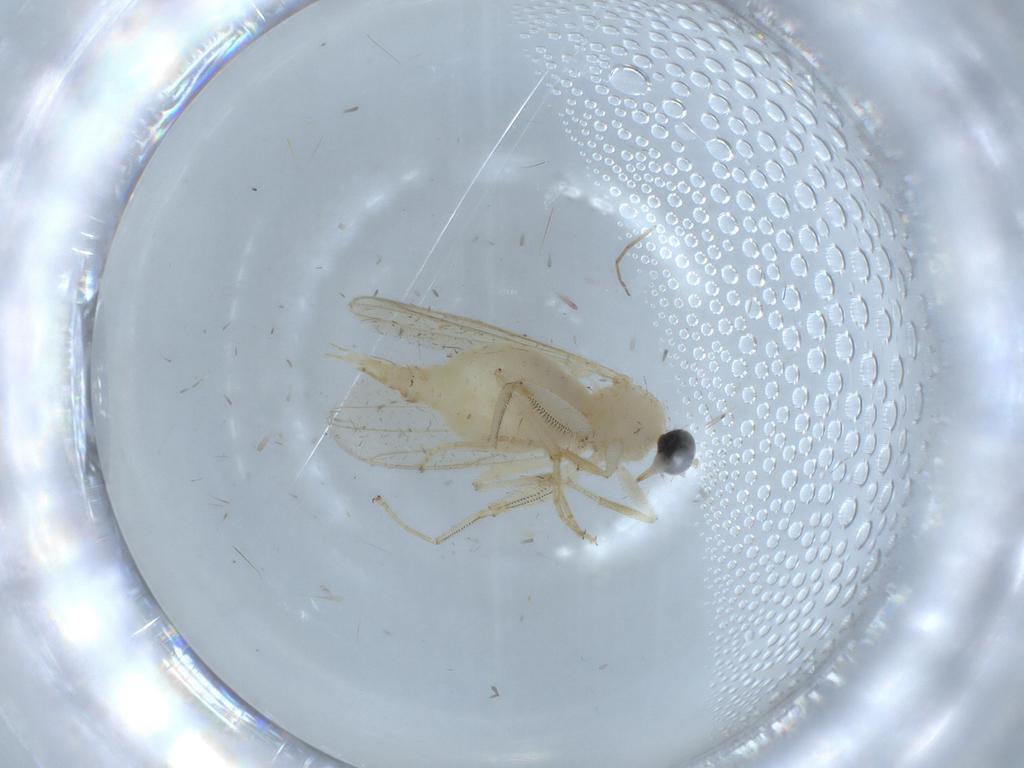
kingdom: Animalia
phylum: Arthropoda
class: Insecta
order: Diptera
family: Hybotidae
